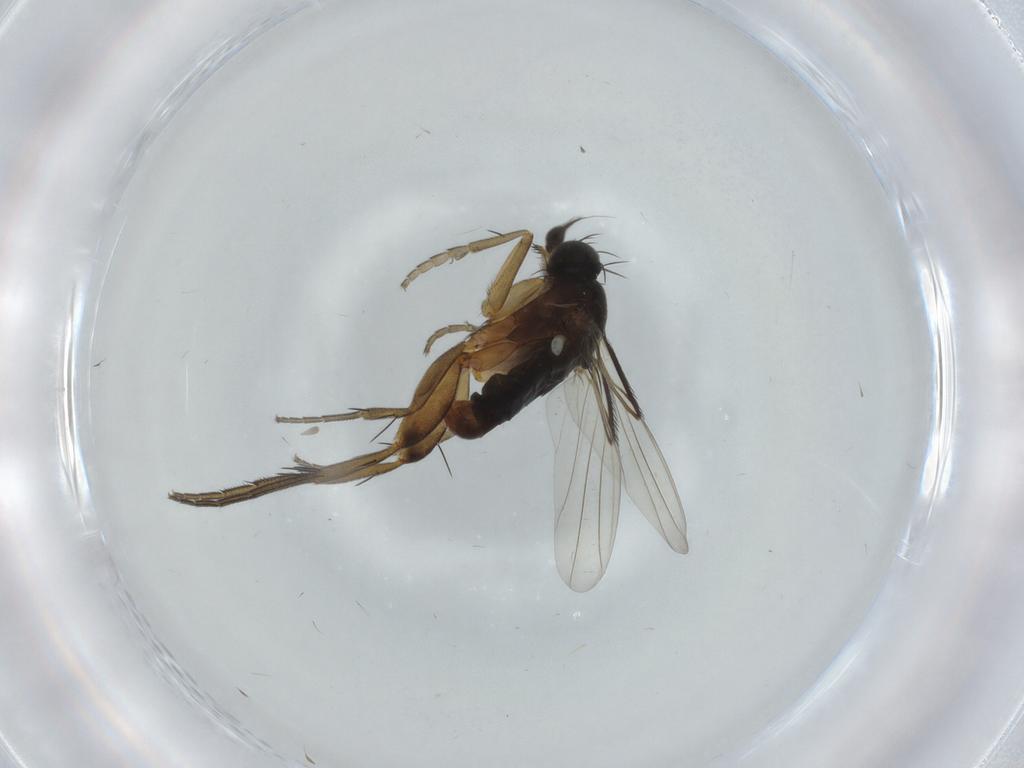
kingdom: Animalia
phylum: Arthropoda
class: Insecta
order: Diptera
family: Phoridae
